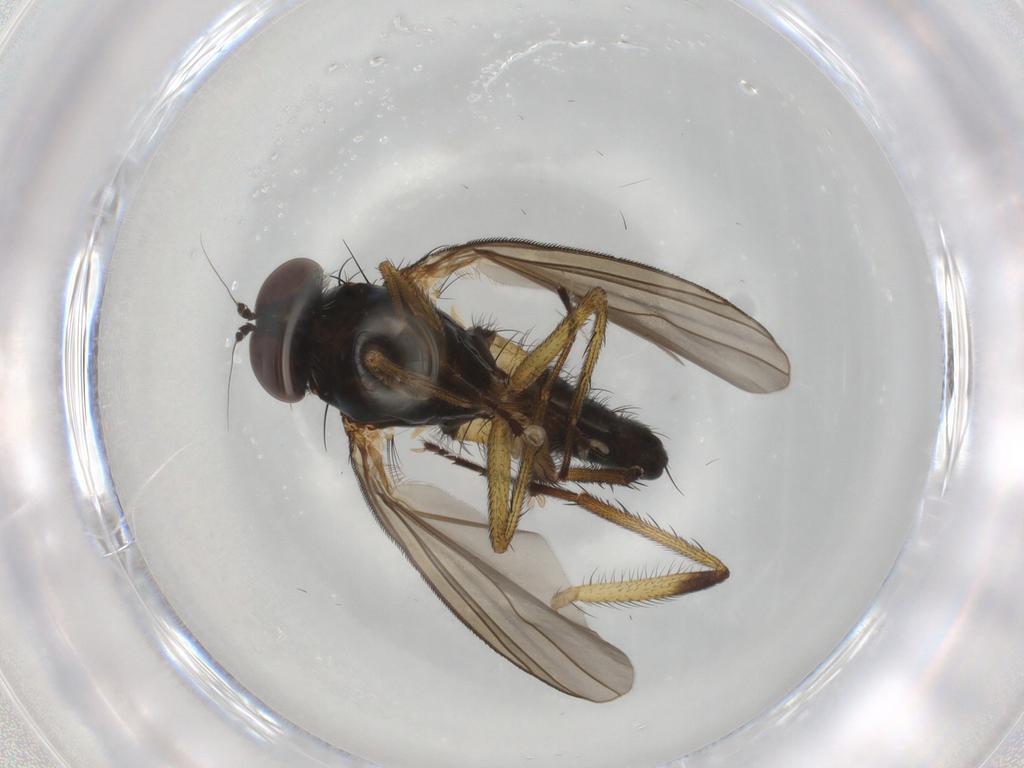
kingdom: Animalia
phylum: Arthropoda
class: Insecta
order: Diptera
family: Dolichopodidae
